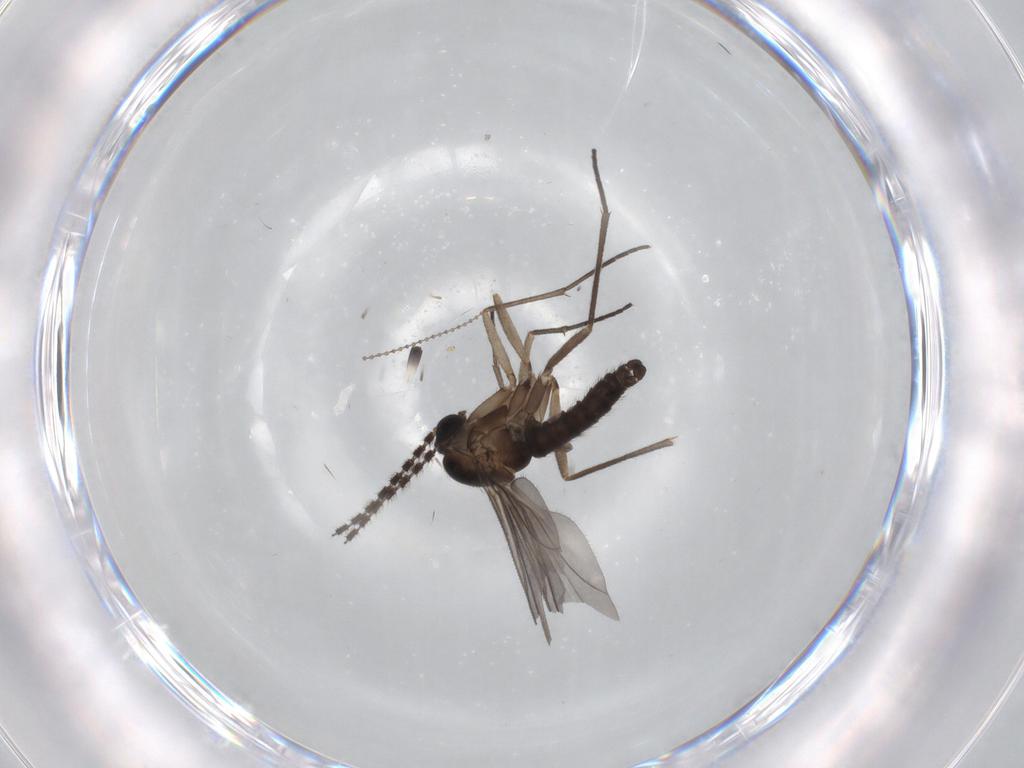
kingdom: Animalia
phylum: Arthropoda
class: Insecta
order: Diptera
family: Sciaridae
